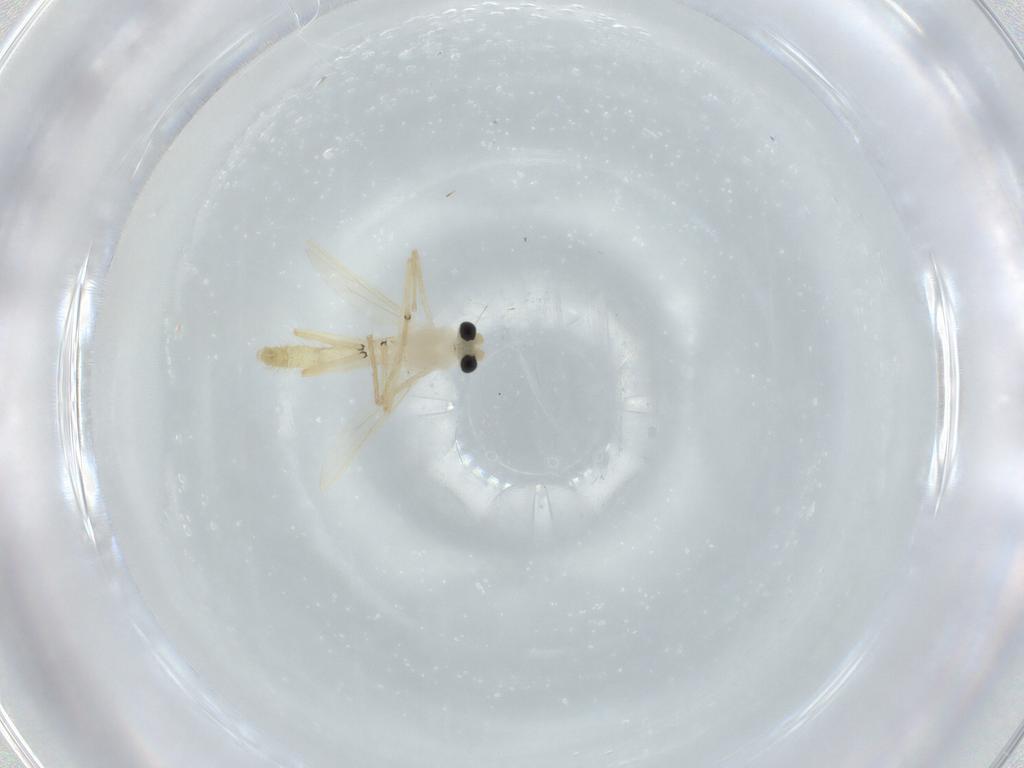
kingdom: Animalia
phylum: Arthropoda
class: Insecta
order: Diptera
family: Chironomidae
